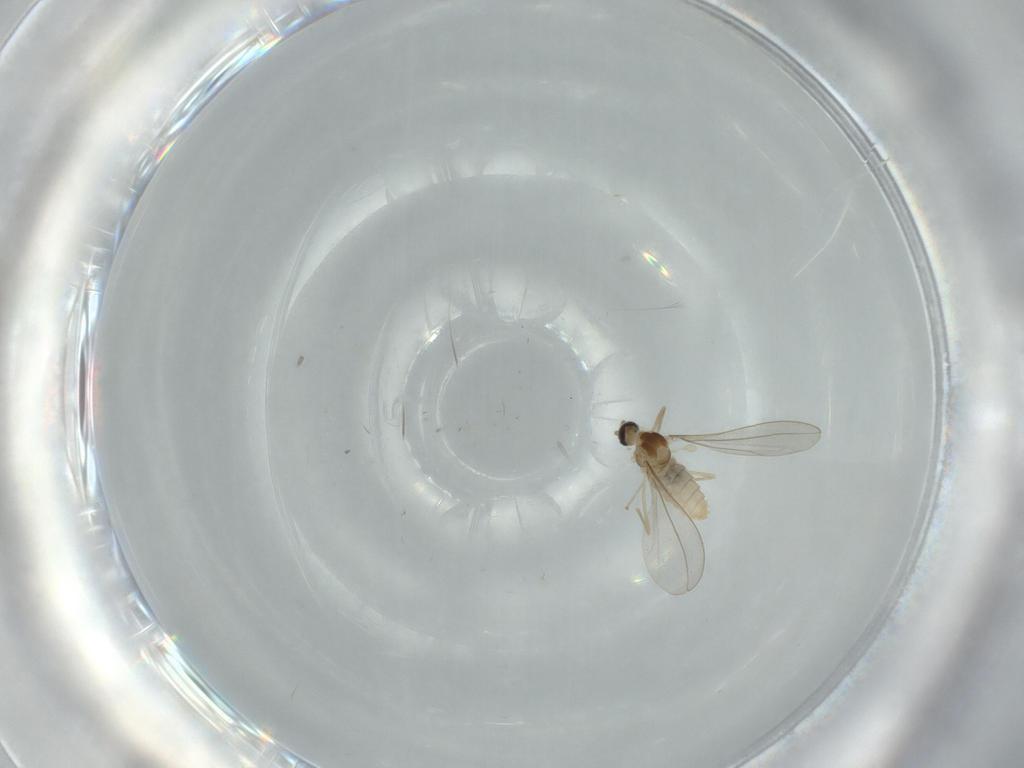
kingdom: Animalia
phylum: Arthropoda
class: Insecta
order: Diptera
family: Cecidomyiidae
